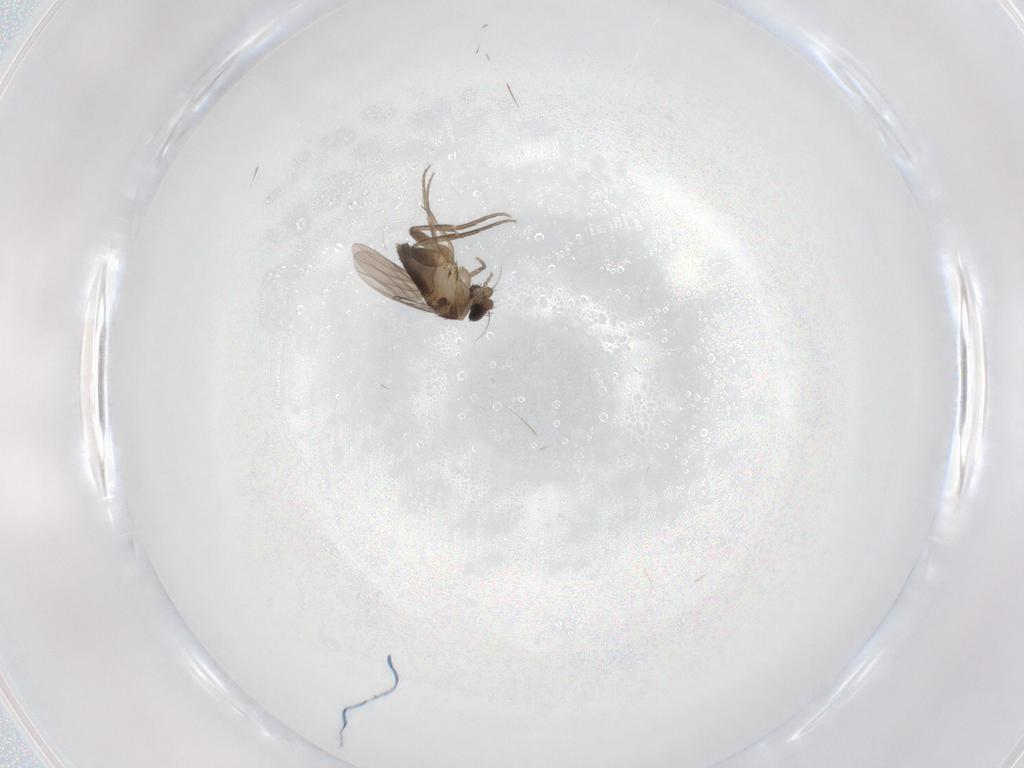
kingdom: Animalia
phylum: Arthropoda
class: Insecta
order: Diptera
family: Phoridae
